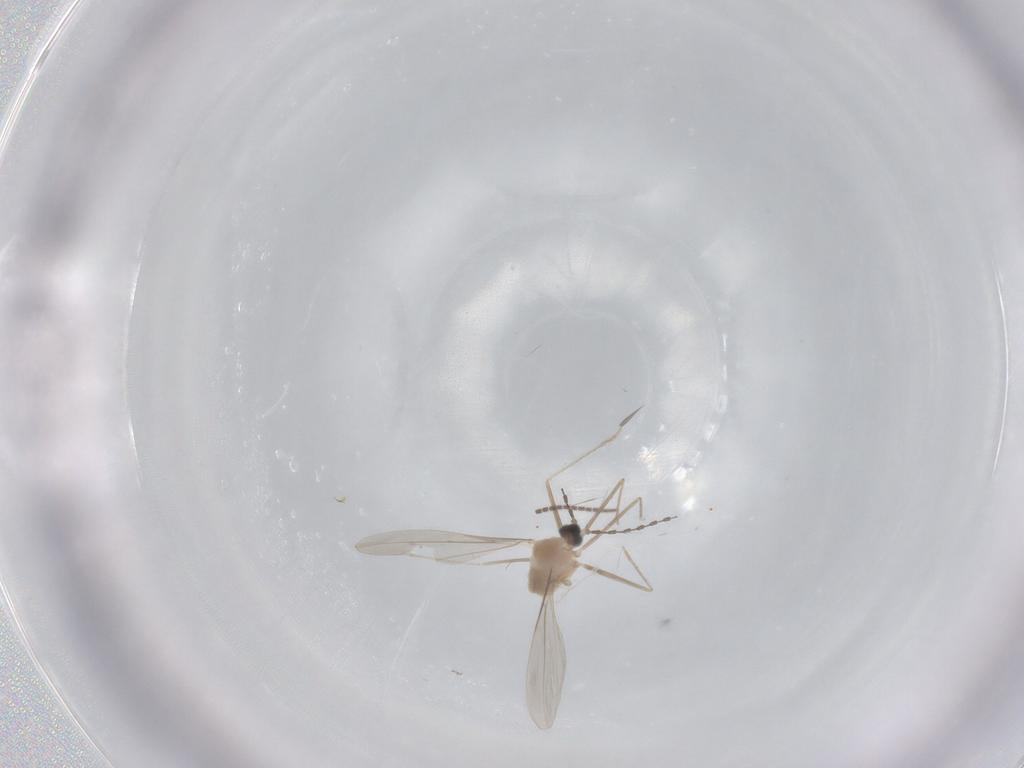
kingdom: Animalia
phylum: Arthropoda
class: Insecta
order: Diptera
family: Cecidomyiidae
